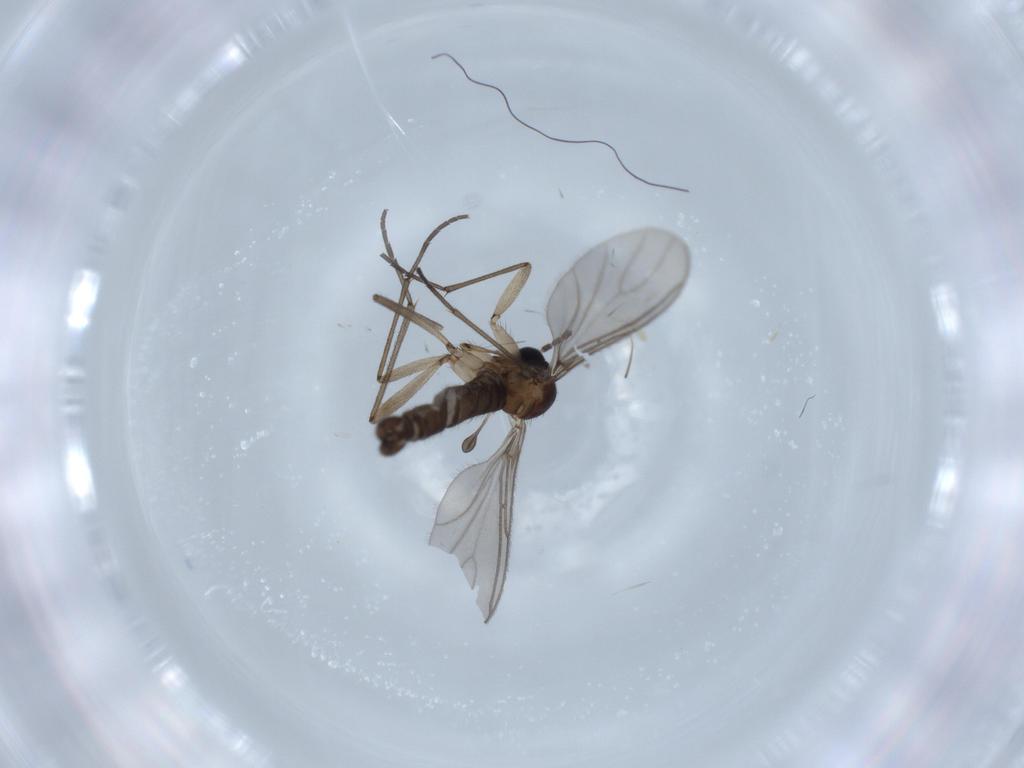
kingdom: Animalia
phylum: Arthropoda
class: Insecta
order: Diptera
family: Sciaridae
